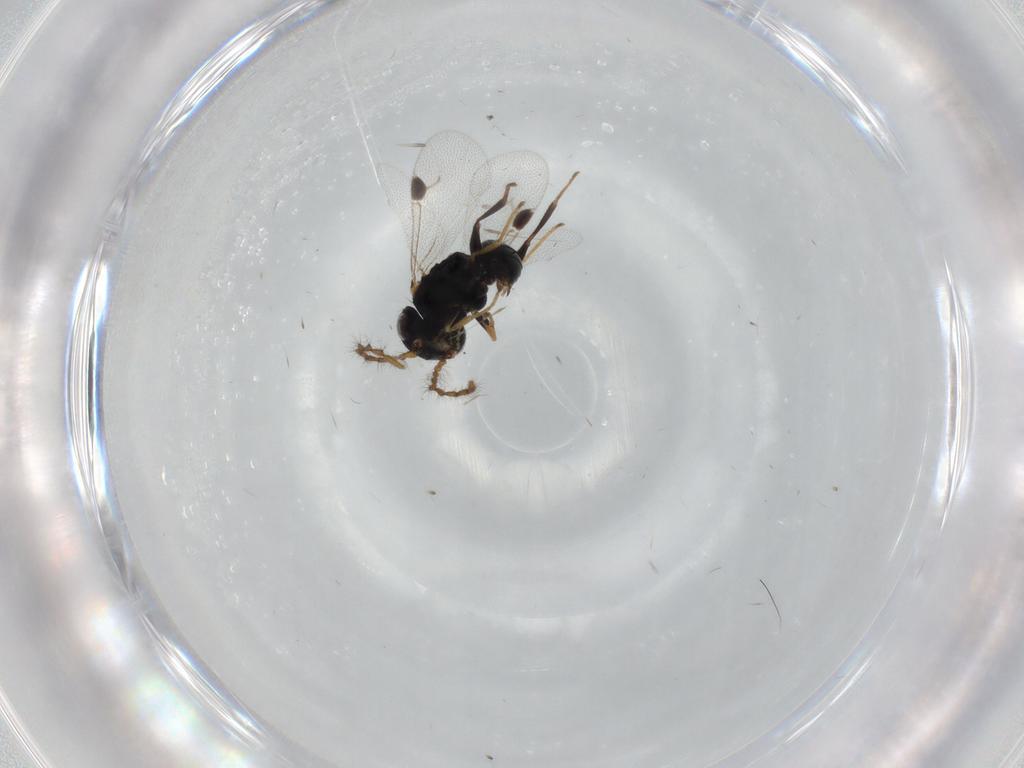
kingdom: Animalia
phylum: Arthropoda
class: Insecta
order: Hymenoptera
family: Dryinidae
